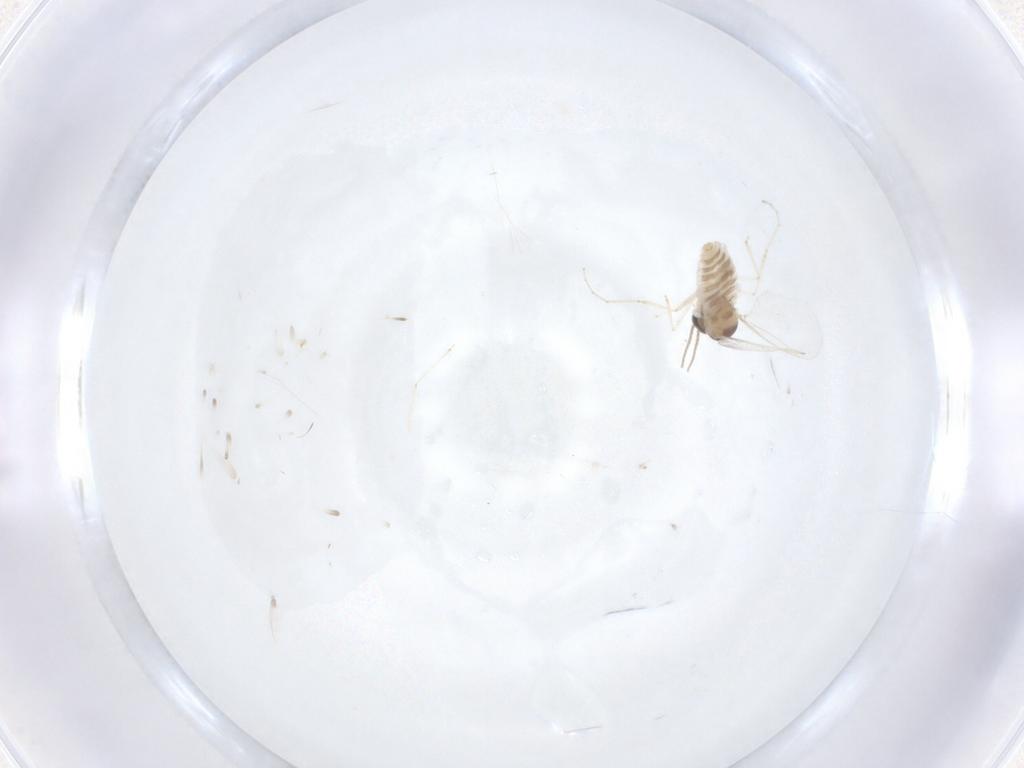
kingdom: Animalia
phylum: Arthropoda
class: Insecta
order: Diptera
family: Cecidomyiidae
